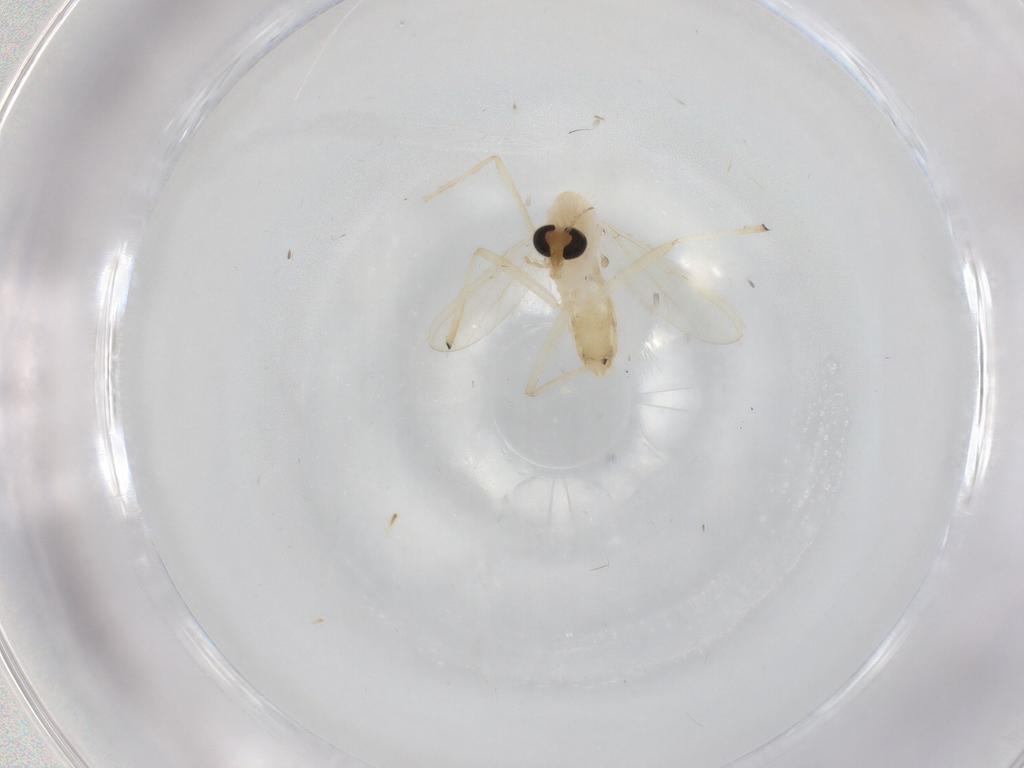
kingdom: Animalia
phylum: Arthropoda
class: Insecta
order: Diptera
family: Chironomidae
